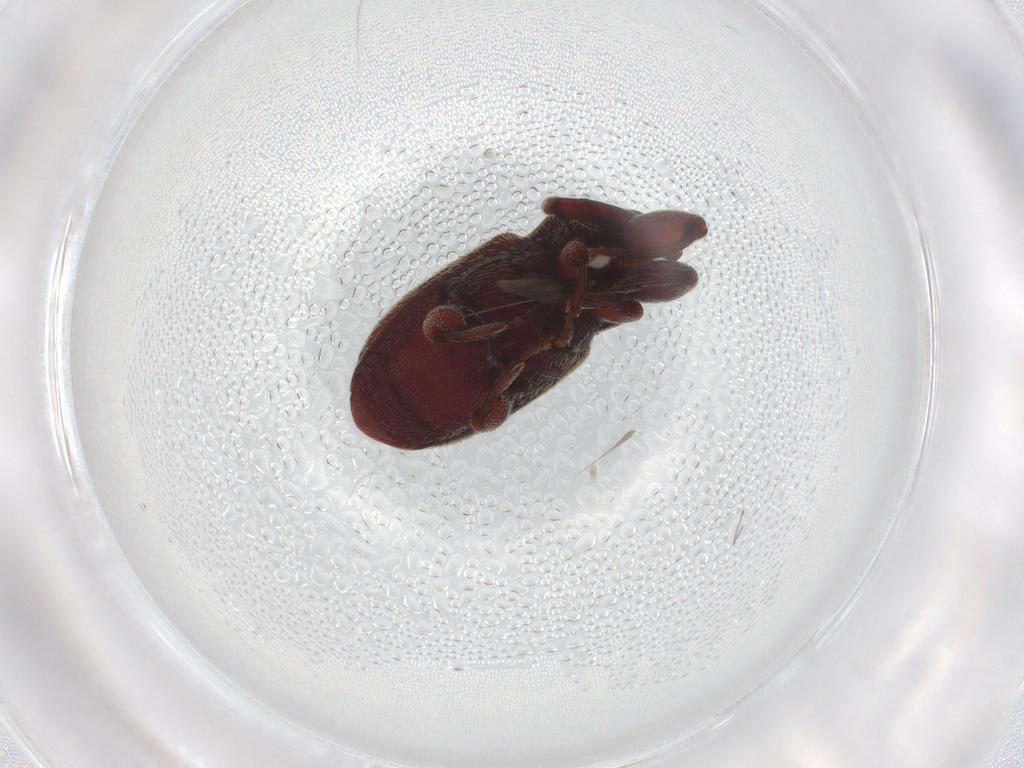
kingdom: Animalia
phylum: Arthropoda
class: Insecta
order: Coleoptera
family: Curculionidae
